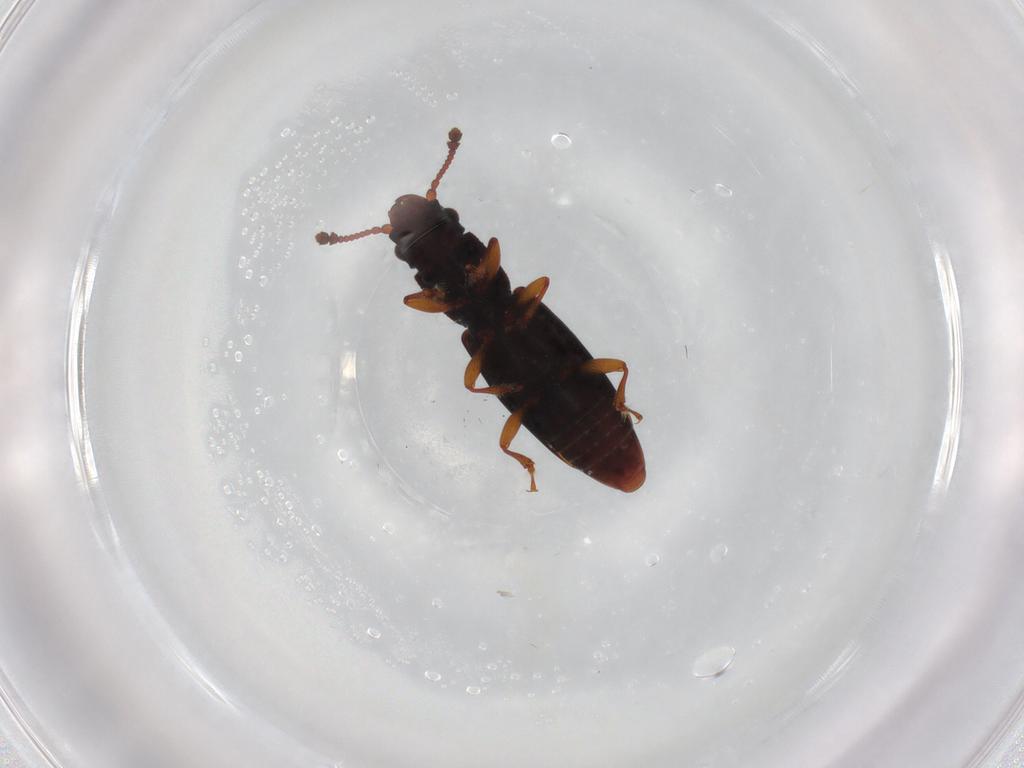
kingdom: Animalia
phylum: Arthropoda
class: Insecta
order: Coleoptera
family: Monotomidae
